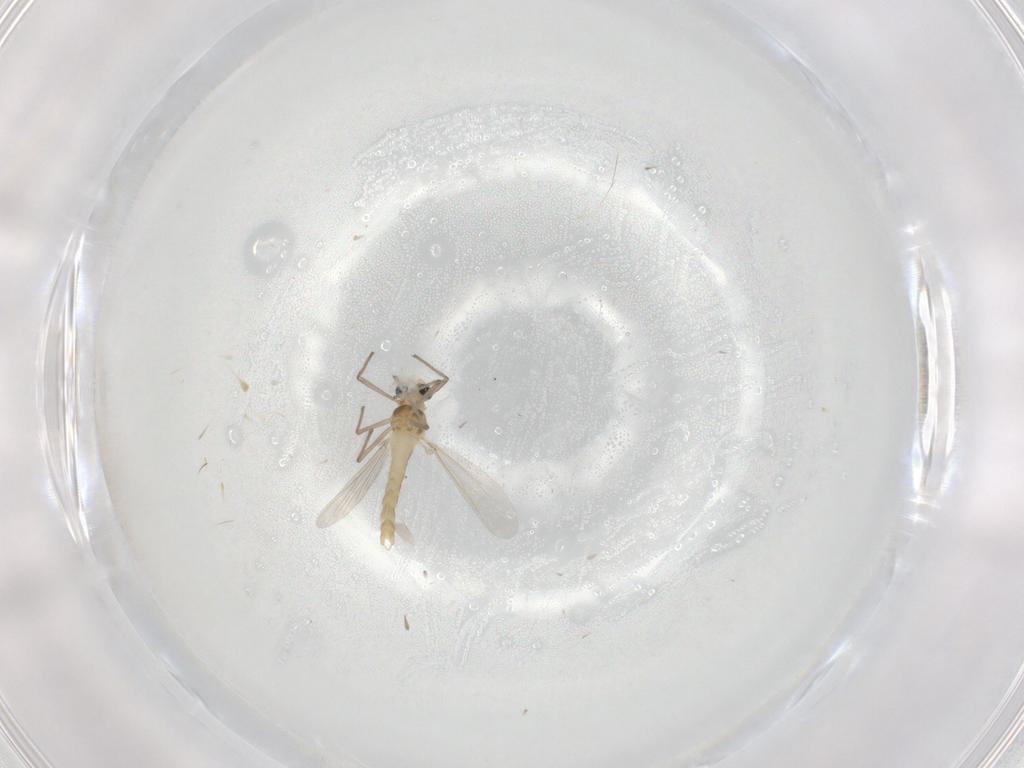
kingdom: Animalia
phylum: Arthropoda
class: Insecta
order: Diptera
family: Ditomyiidae
